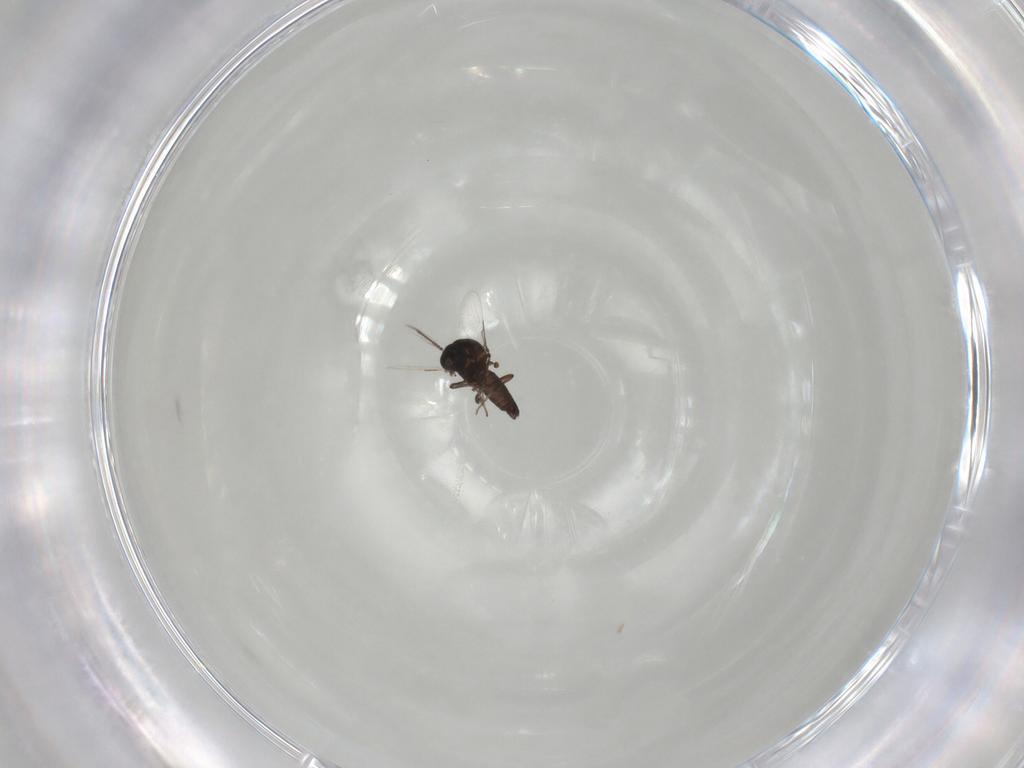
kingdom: Animalia
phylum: Arthropoda
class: Insecta
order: Diptera
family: Ceratopogonidae
